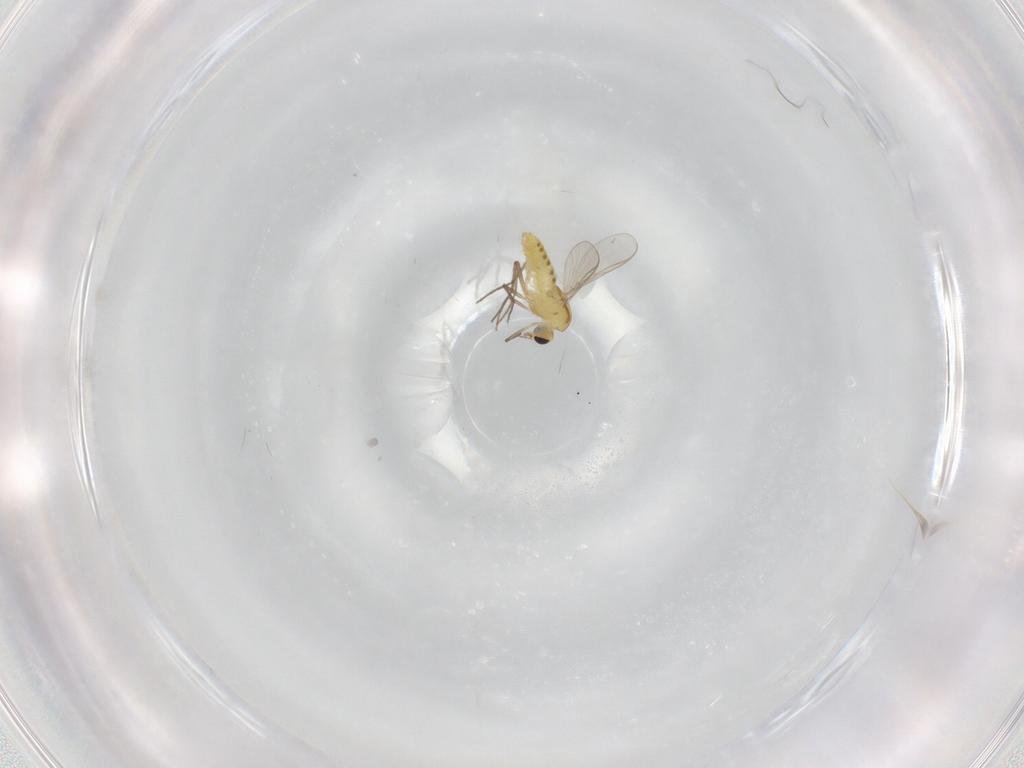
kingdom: Animalia
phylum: Arthropoda
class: Insecta
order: Diptera
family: Chironomidae
